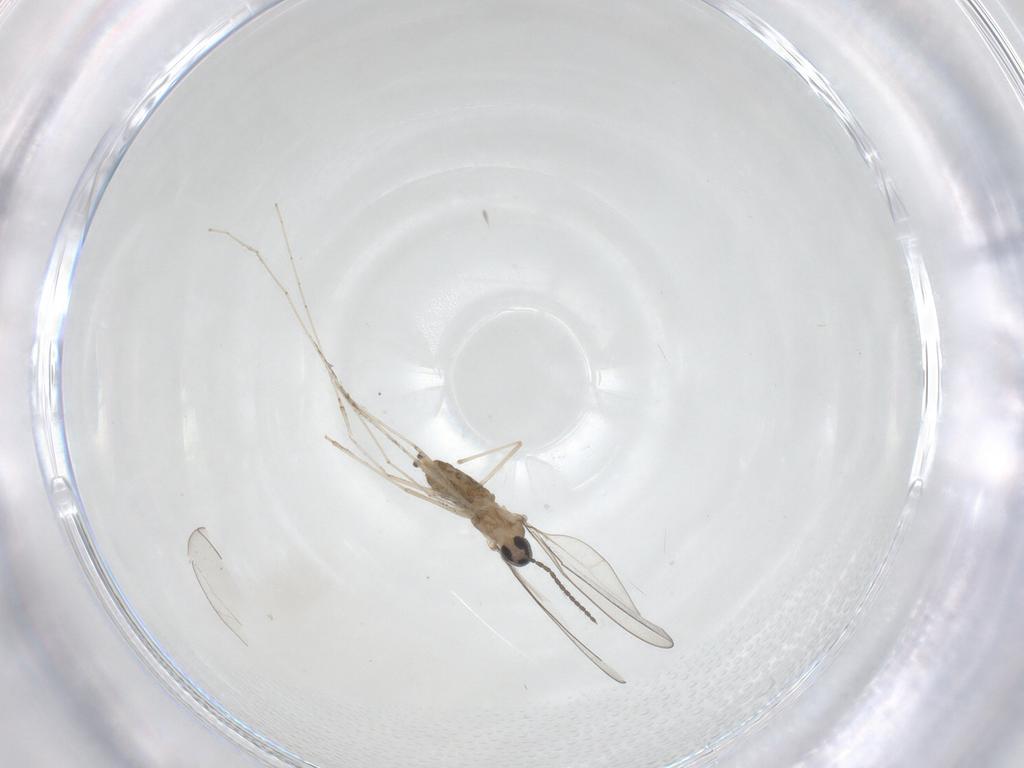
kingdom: Animalia
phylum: Arthropoda
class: Insecta
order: Diptera
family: Cecidomyiidae
